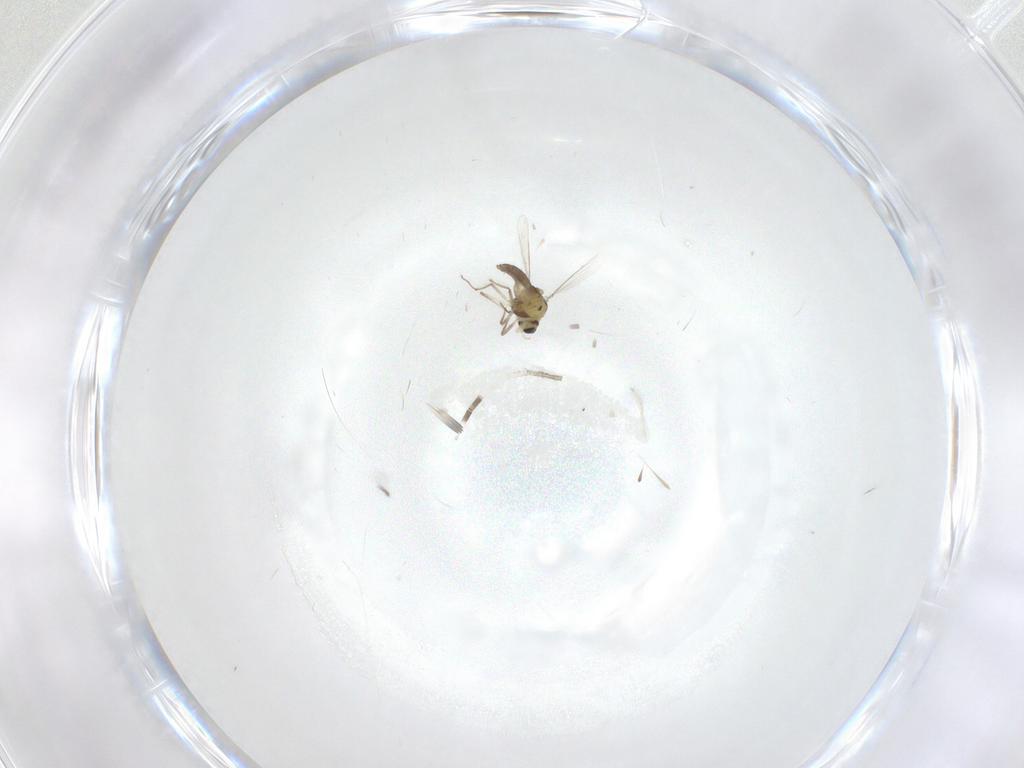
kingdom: Animalia
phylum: Arthropoda
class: Insecta
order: Diptera
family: Chironomidae
